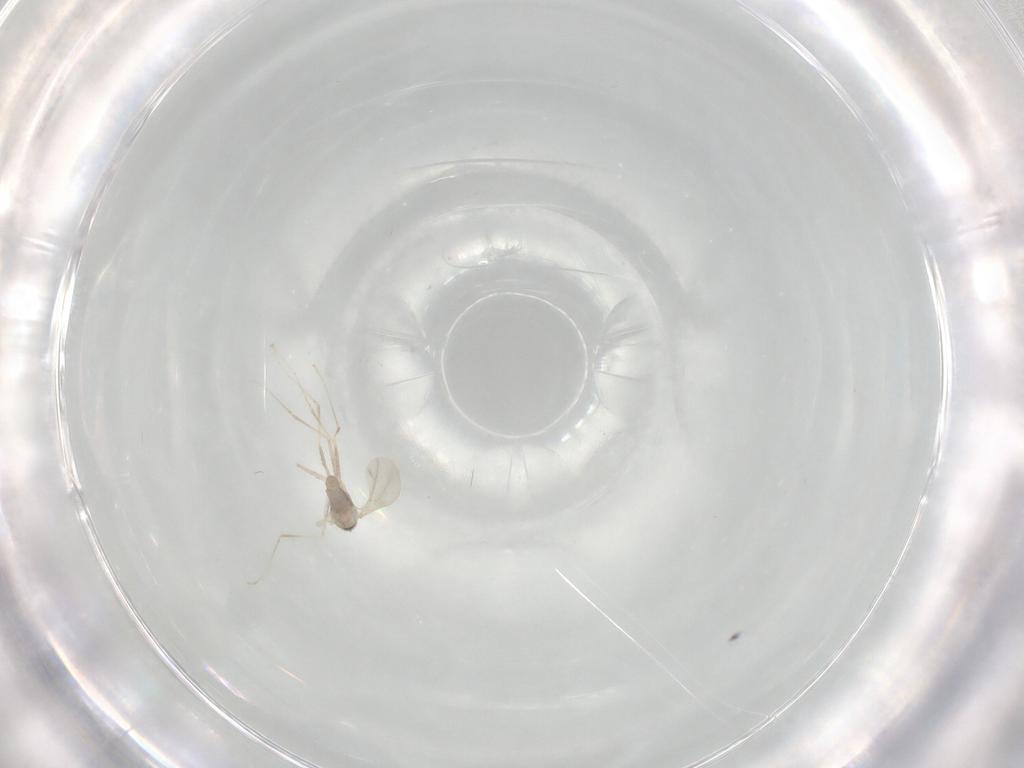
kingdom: Animalia
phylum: Arthropoda
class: Insecta
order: Diptera
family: Cecidomyiidae
